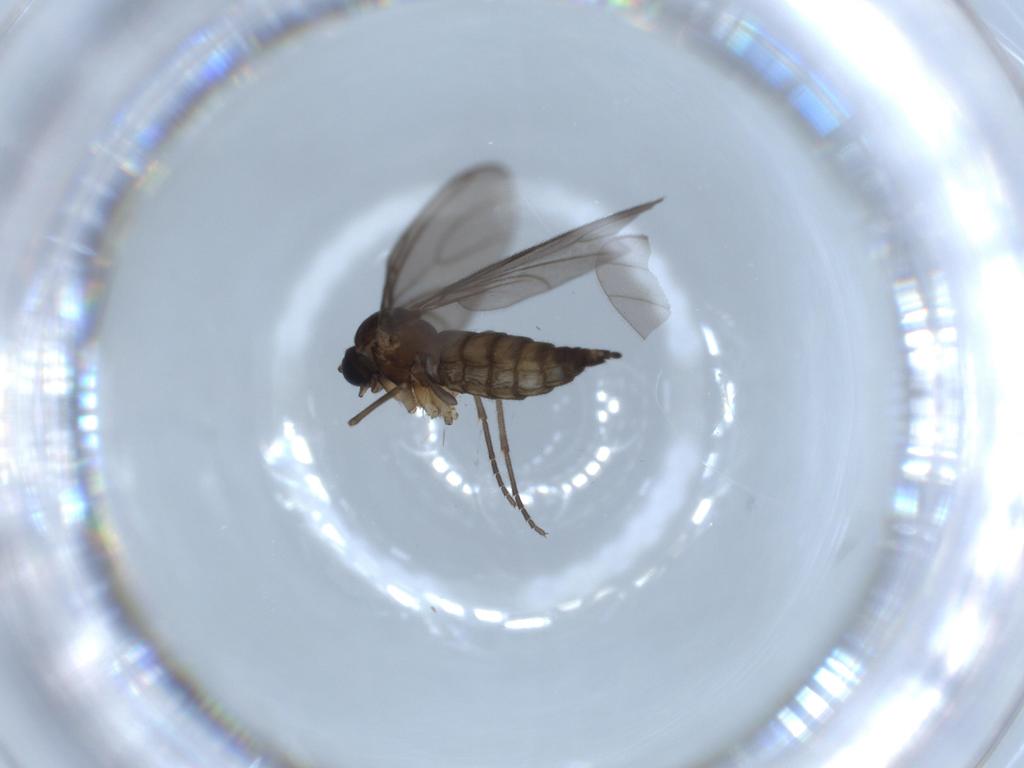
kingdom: Animalia
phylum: Arthropoda
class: Insecta
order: Diptera
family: Sciaridae
